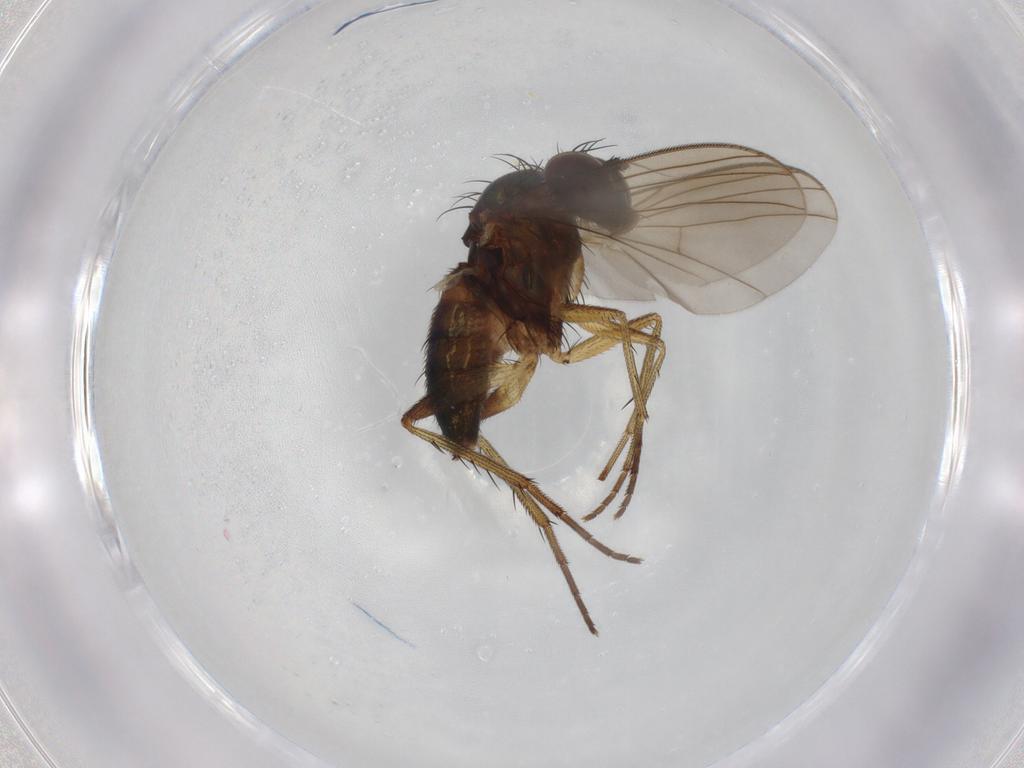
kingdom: Animalia
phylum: Arthropoda
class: Insecta
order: Diptera
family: Dolichopodidae
